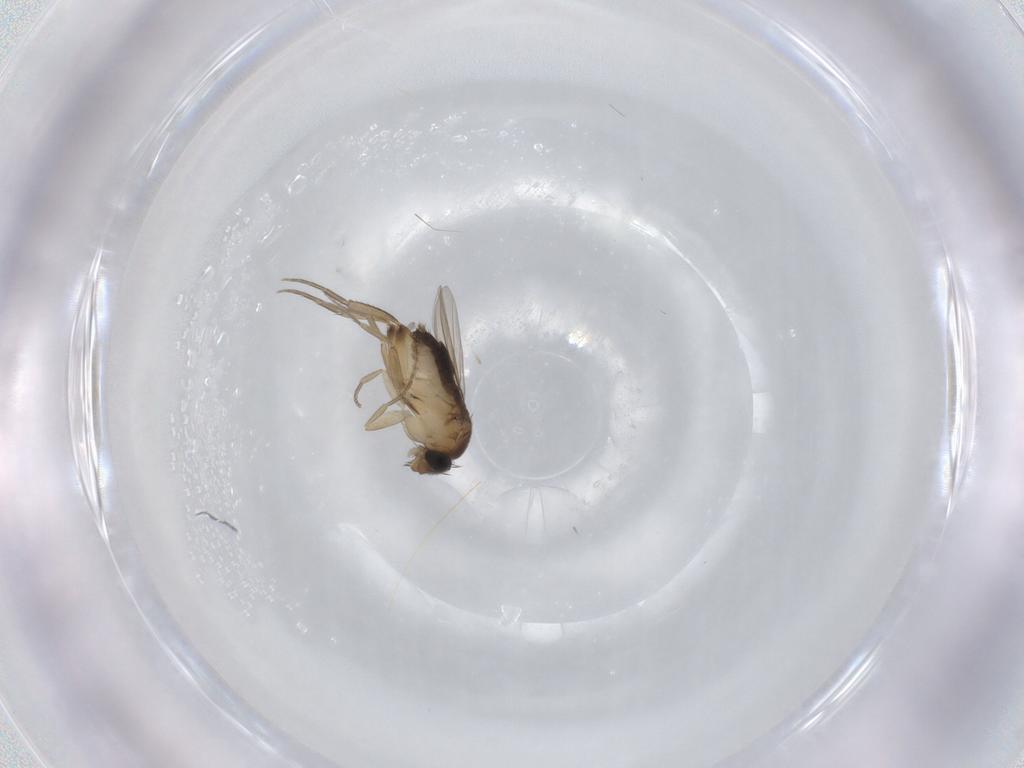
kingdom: Animalia
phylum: Arthropoda
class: Insecta
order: Diptera
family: Phoridae
